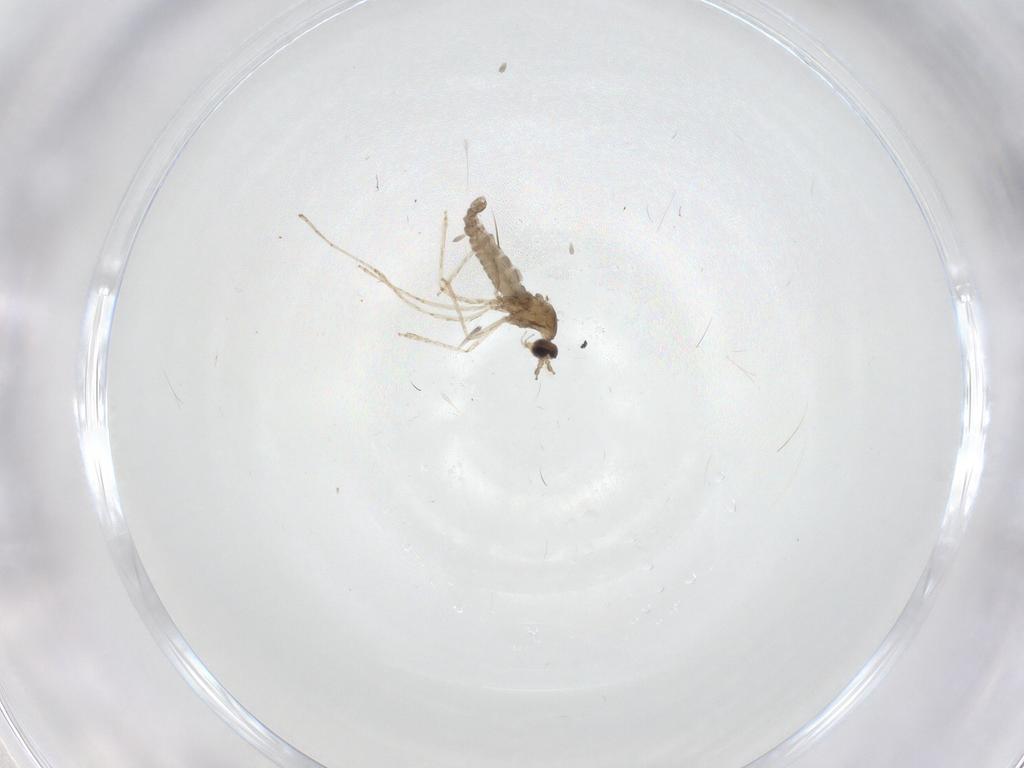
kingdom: Animalia
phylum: Arthropoda
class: Insecta
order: Diptera
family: Cecidomyiidae
